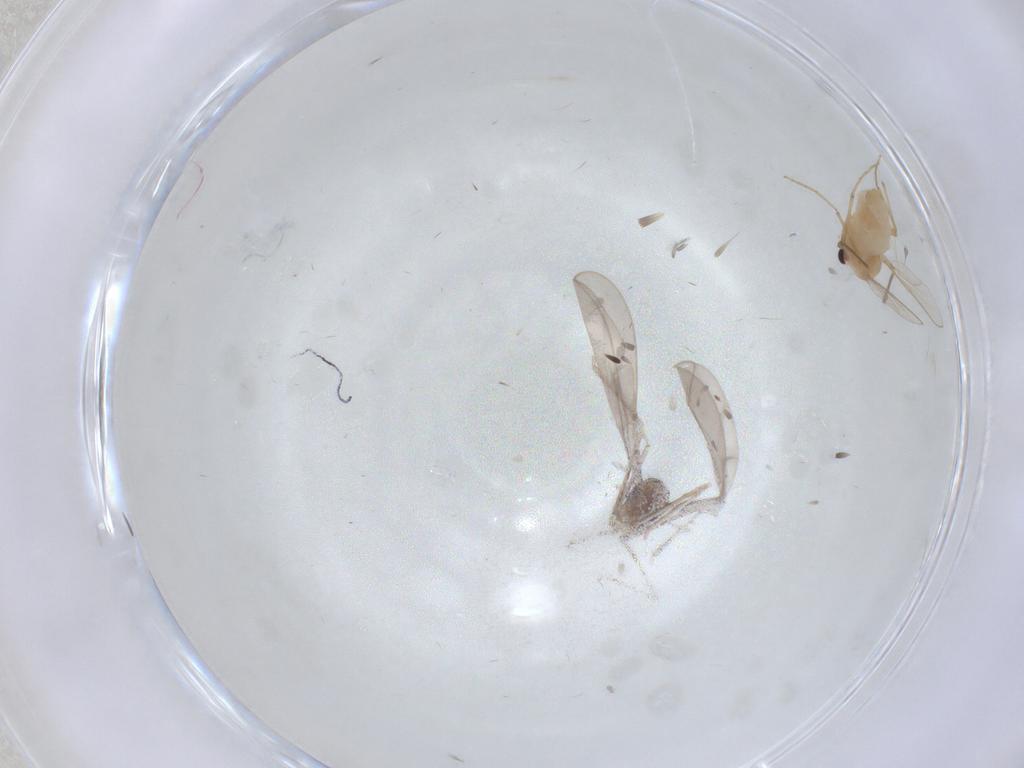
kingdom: Animalia
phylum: Arthropoda
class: Insecta
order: Diptera
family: Chironomidae
